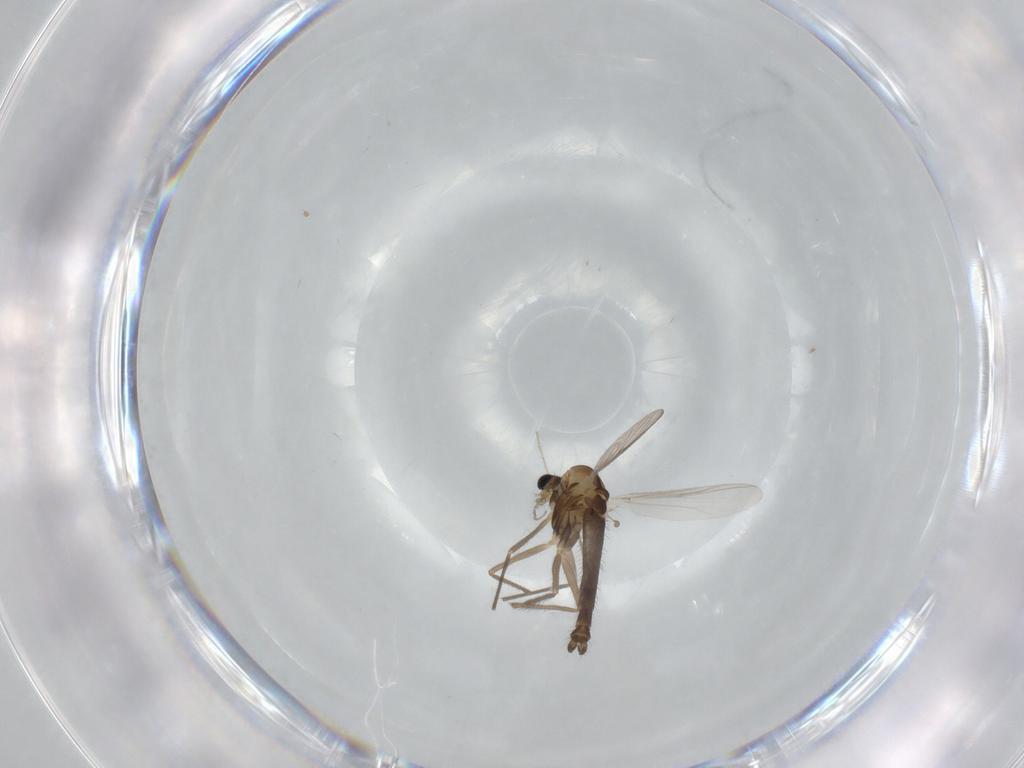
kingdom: Animalia
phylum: Arthropoda
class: Insecta
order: Diptera
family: Chironomidae
